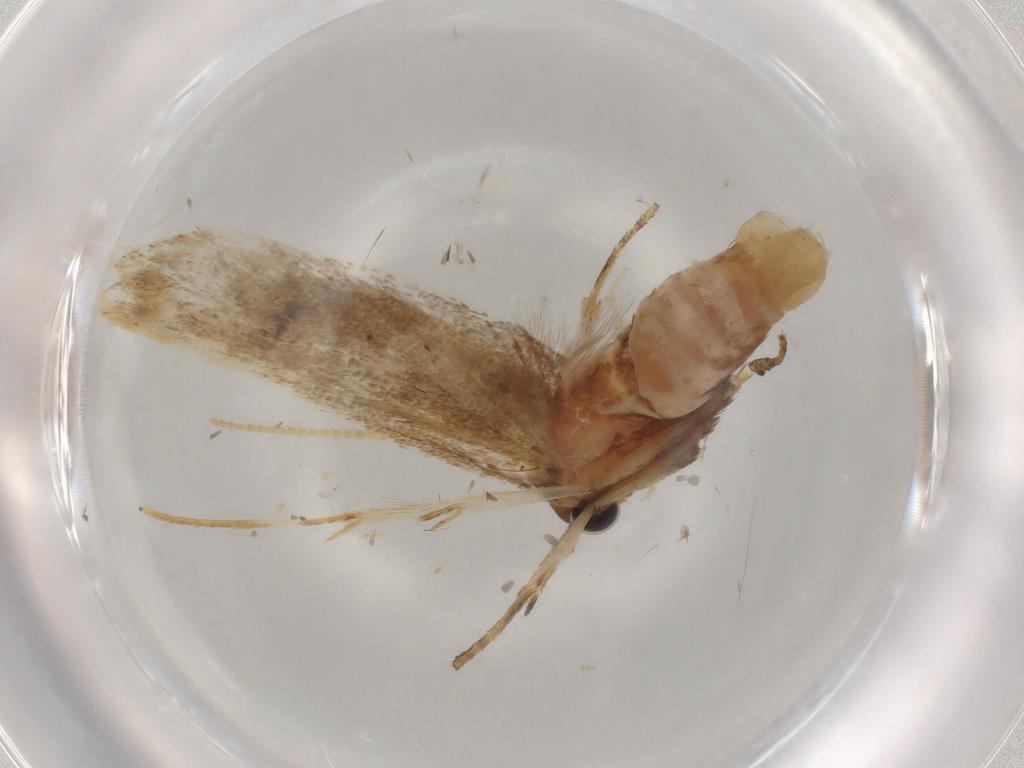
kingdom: Animalia
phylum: Arthropoda
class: Insecta
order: Lepidoptera
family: Lecithoceridae
